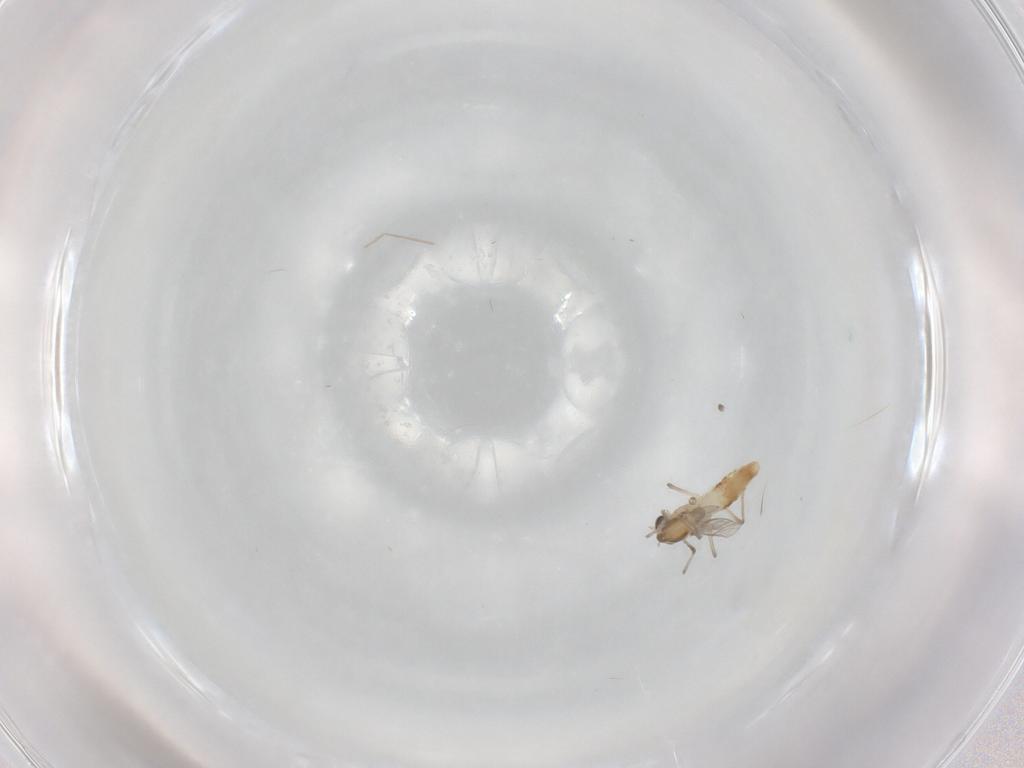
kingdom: Animalia
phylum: Arthropoda
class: Insecta
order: Diptera
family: Chironomidae
